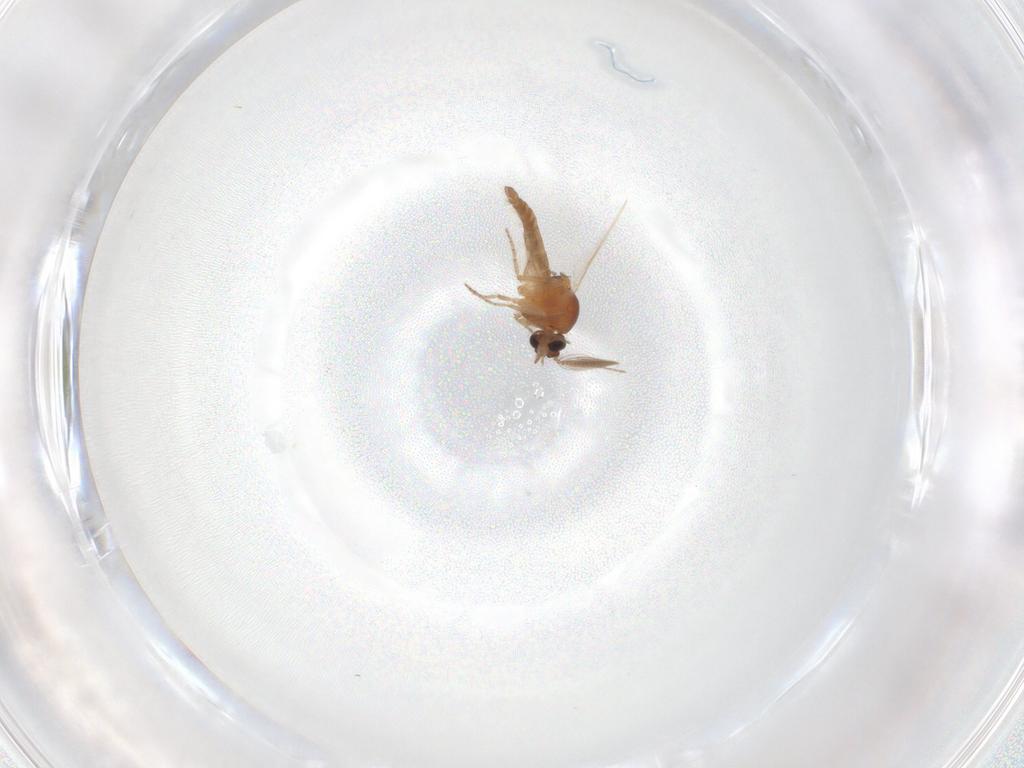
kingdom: Animalia
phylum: Arthropoda
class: Insecta
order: Diptera
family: Ceratopogonidae
